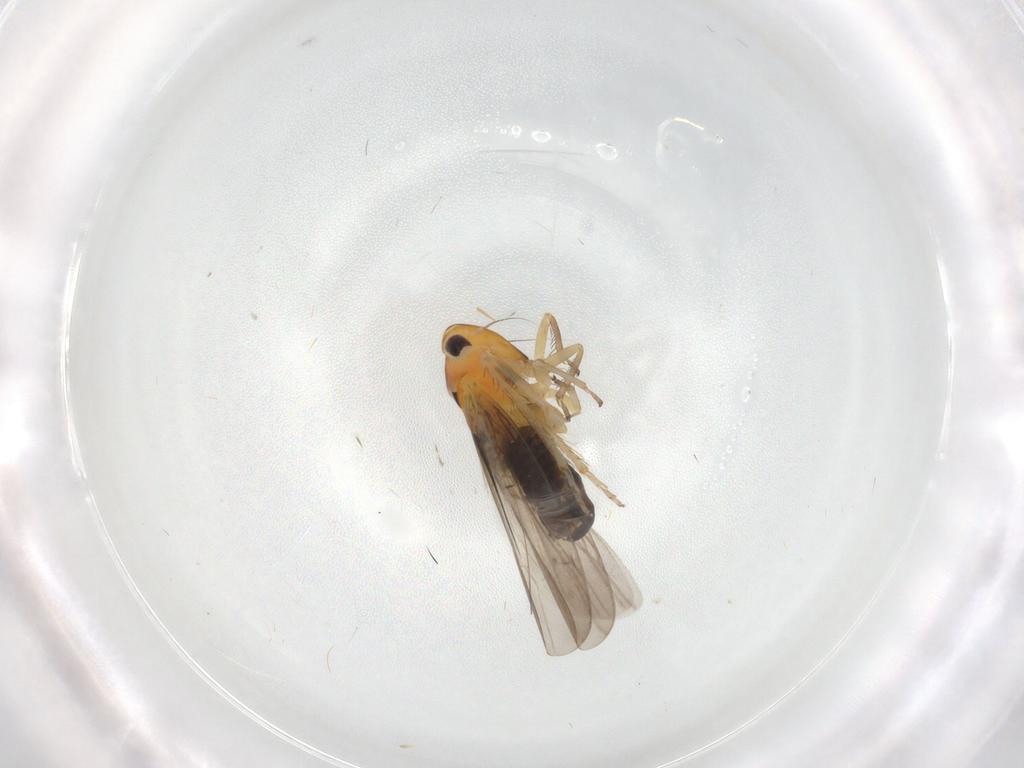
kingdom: Animalia
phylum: Arthropoda
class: Insecta
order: Hemiptera
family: Cicadellidae
